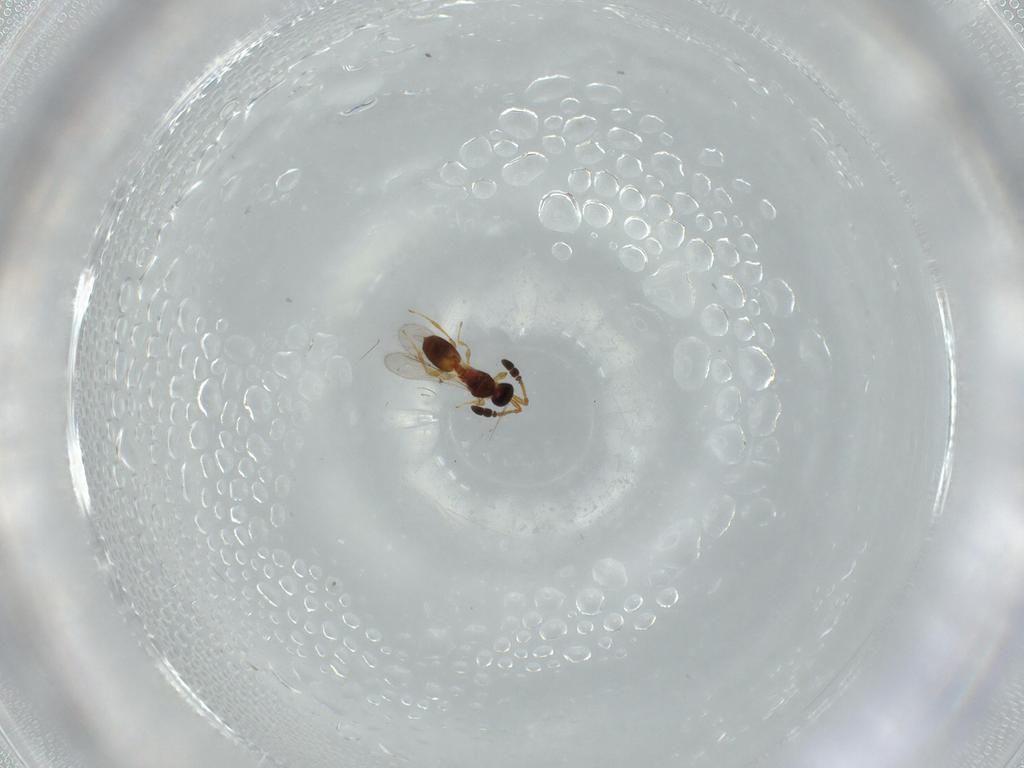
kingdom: Animalia
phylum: Arthropoda
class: Insecta
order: Hymenoptera
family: Diapriidae
